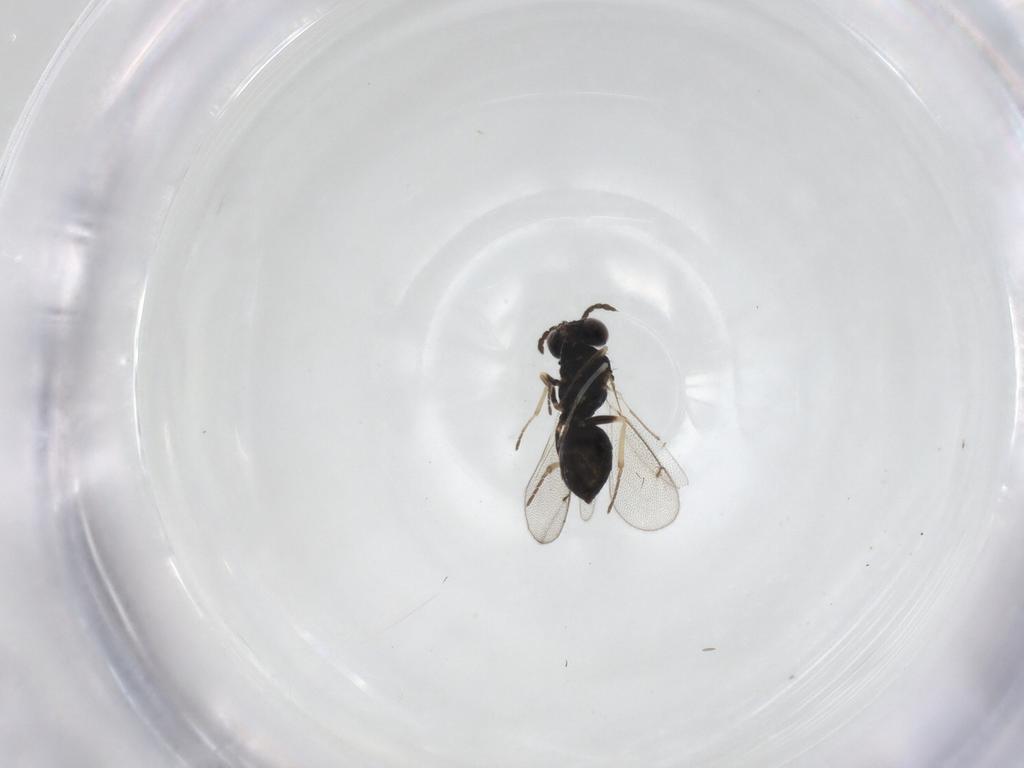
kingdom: Animalia
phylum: Arthropoda
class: Insecta
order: Hymenoptera
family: Eulophidae
